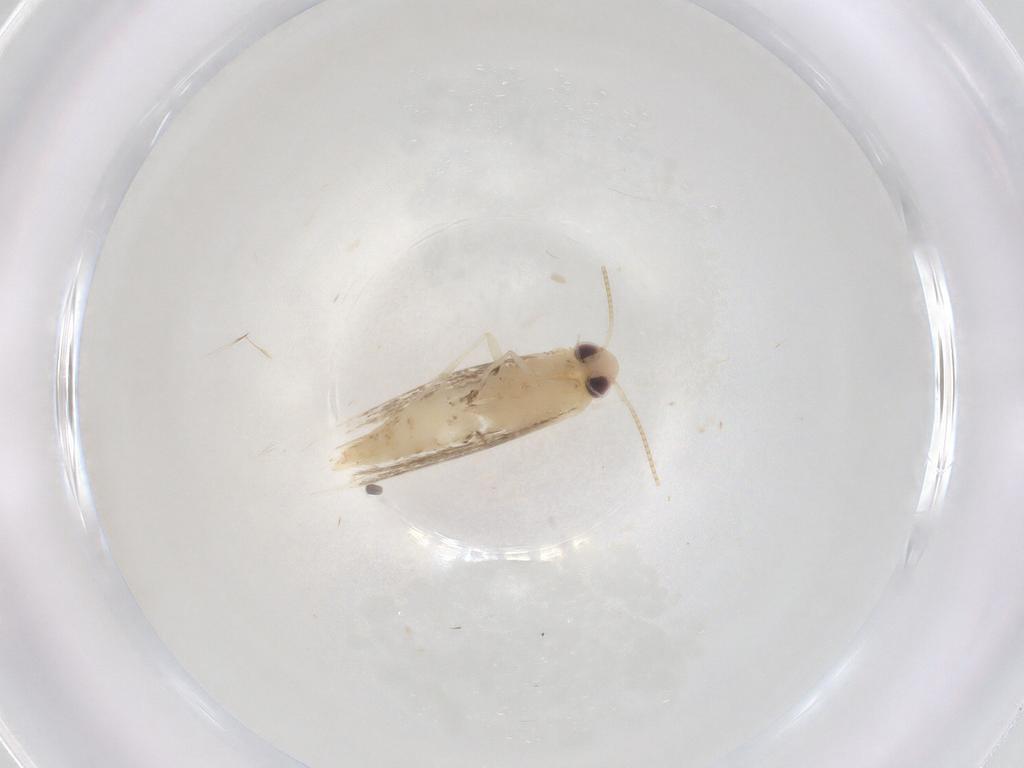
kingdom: Animalia
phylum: Arthropoda
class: Insecta
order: Lepidoptera
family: Gracillariidae
